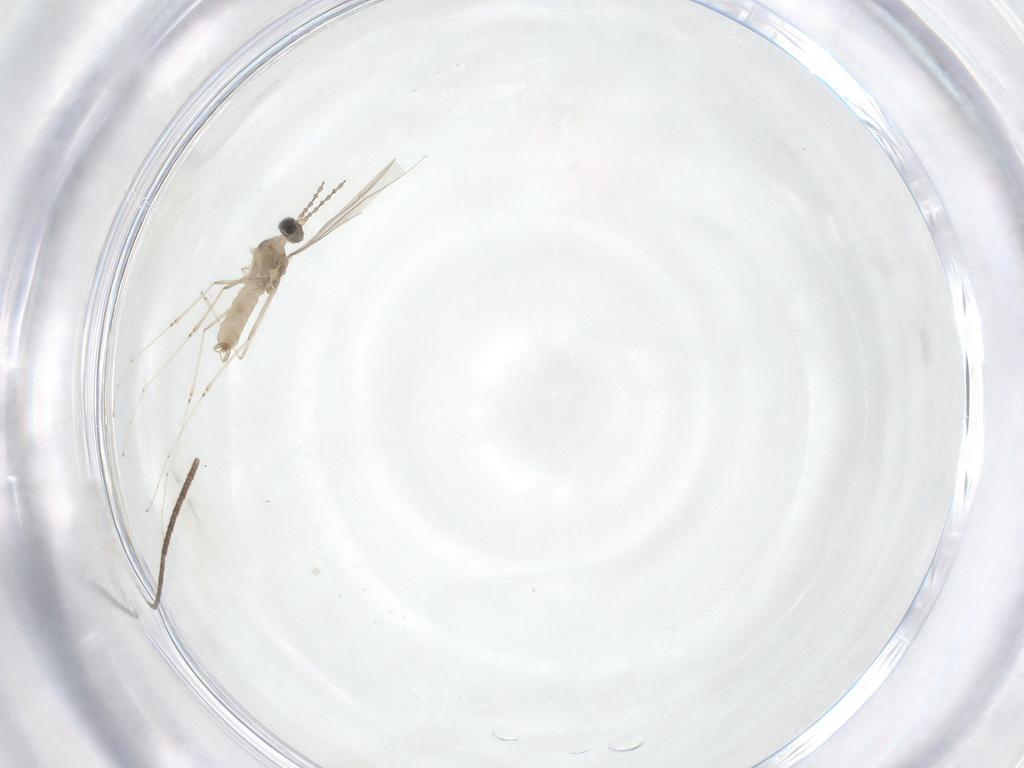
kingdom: Animalia
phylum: Arthropoda
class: Insecta
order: Diptera
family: Cecidomyiidae
